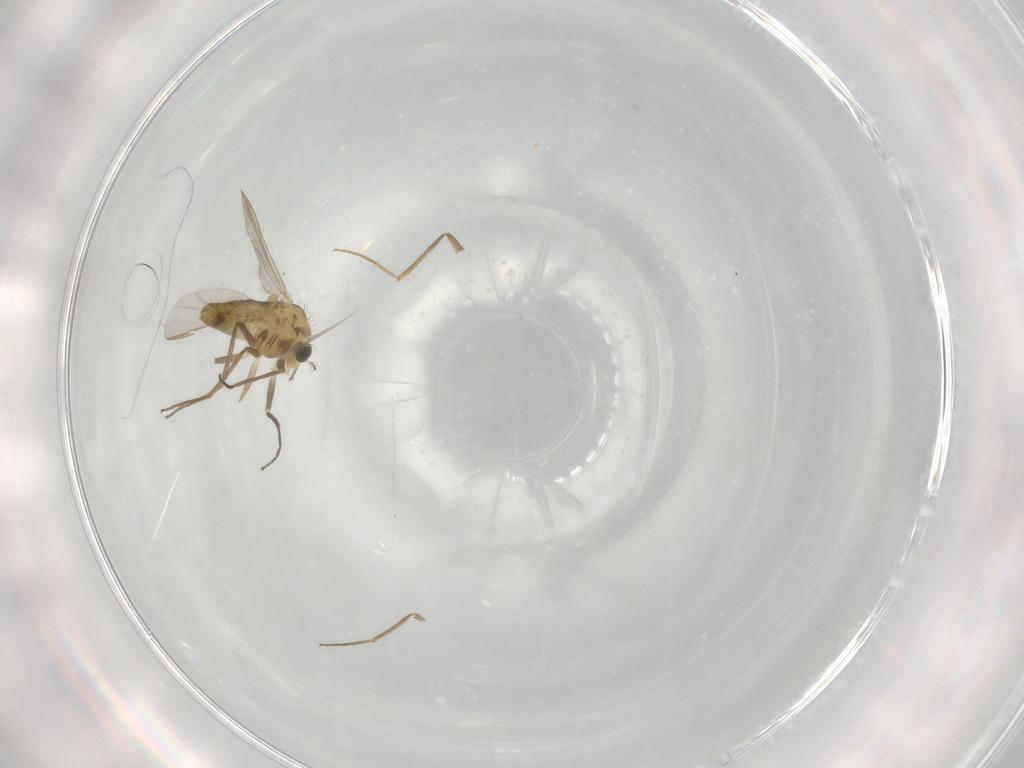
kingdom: Animalia
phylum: Arthropoda
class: Insecta
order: Diptera
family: Chironomidae
